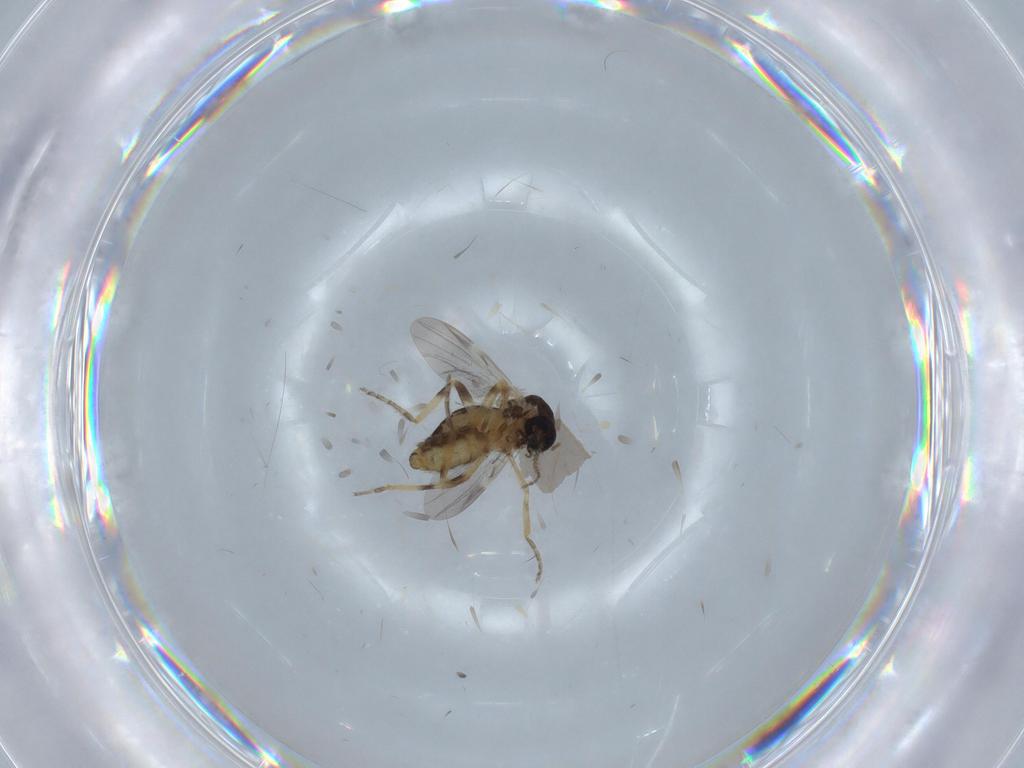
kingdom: Animalia
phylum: Arthropoda
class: Insecta
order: Diptera
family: Ceratopogonidae
